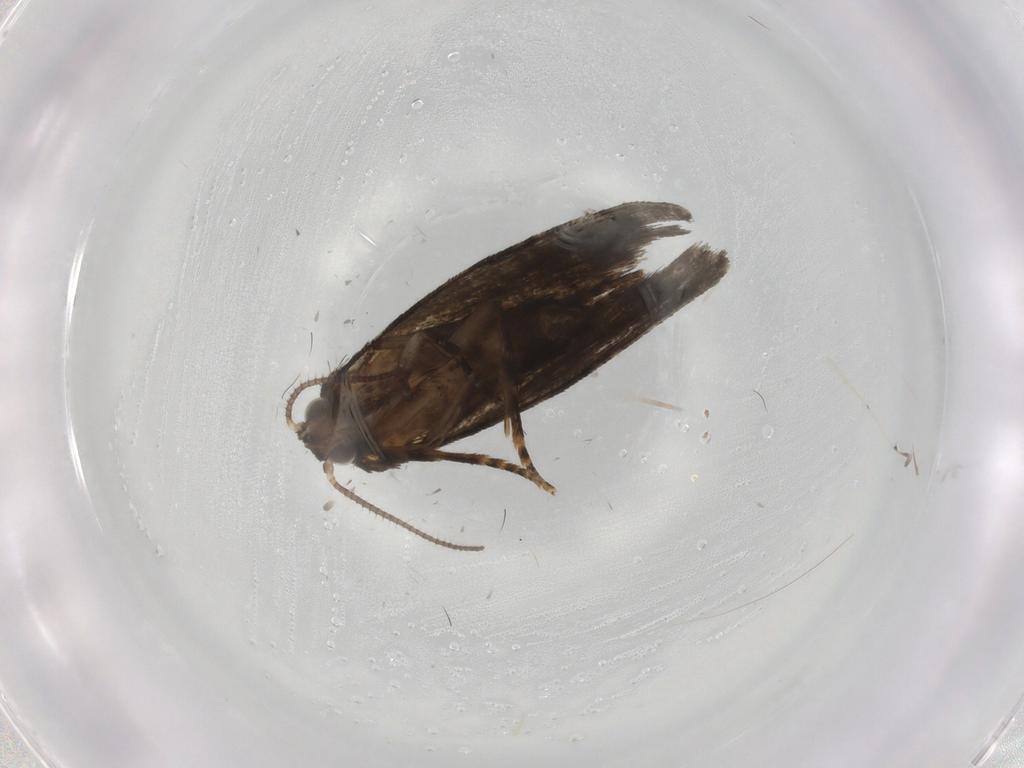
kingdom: Animalia
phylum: Arthropoda
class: Insecta
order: Lepidoptera
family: Tortricidae
